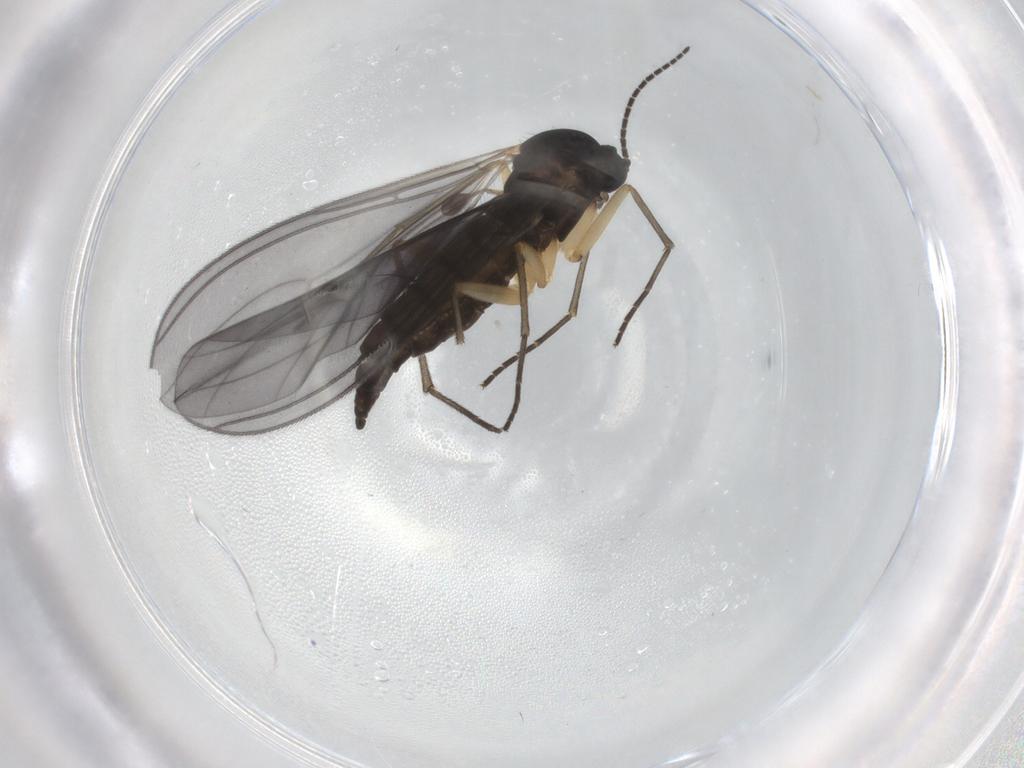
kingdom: Animalia
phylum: Arthropoda
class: Insecta
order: Diptera
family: Sciaridae
